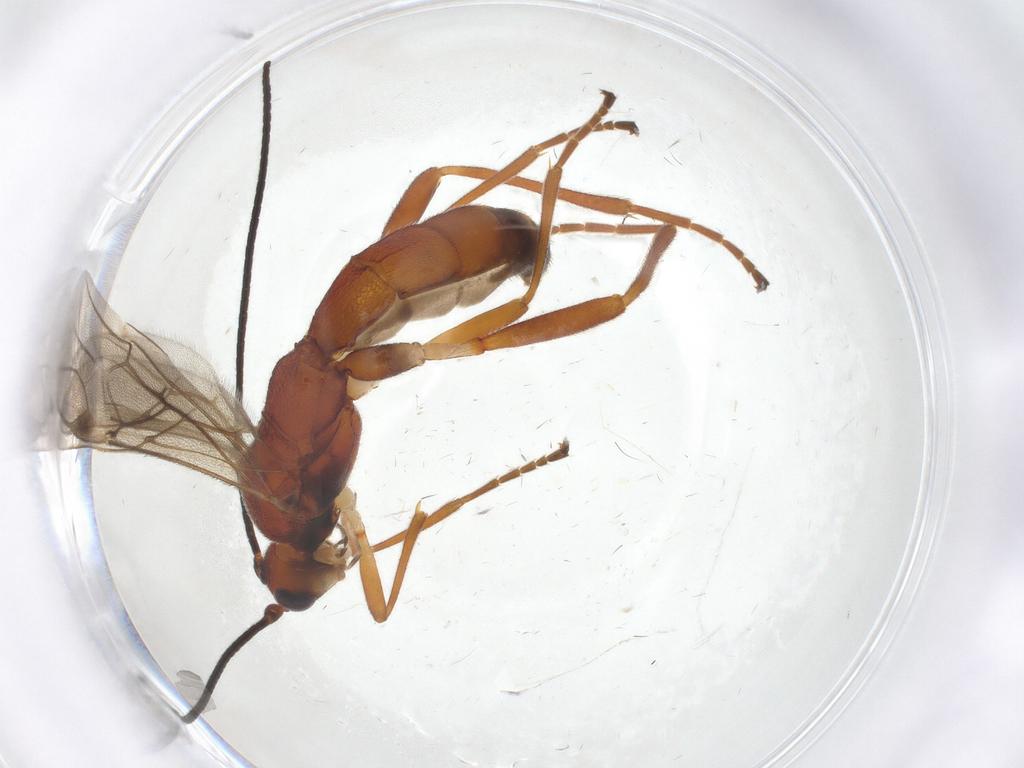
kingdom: Animalia
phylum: Arthropoda
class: Insecta
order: Hymenoptera
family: Braconidae
